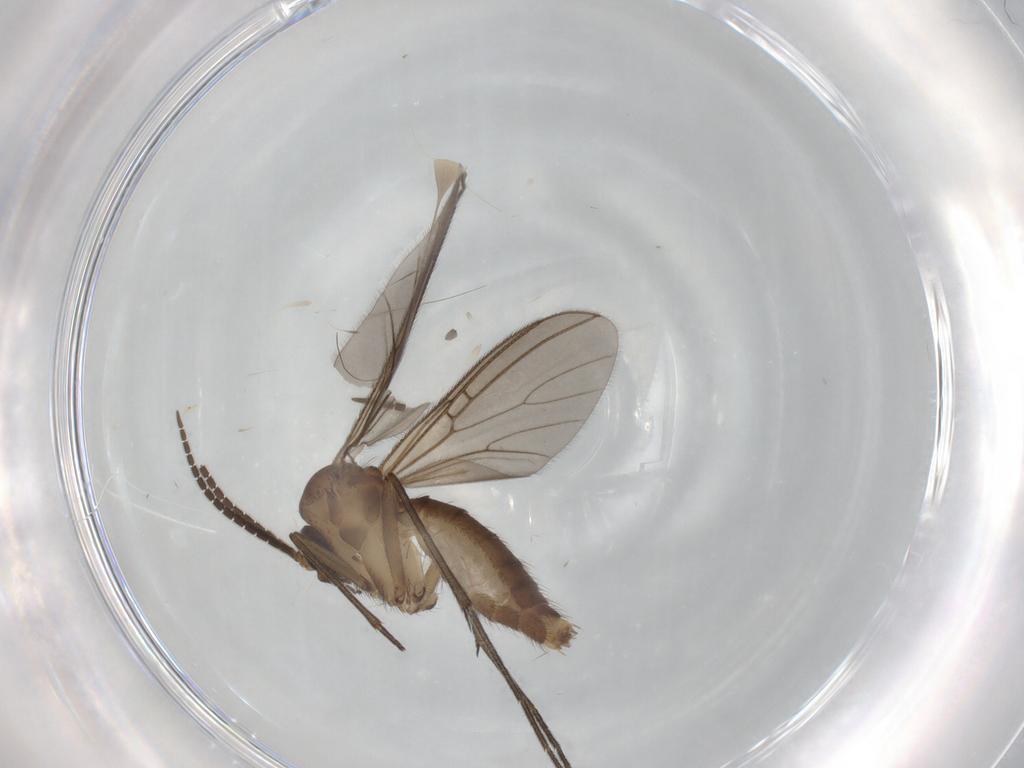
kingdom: Animalia
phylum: Arthropoda
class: Insecta
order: Diptera
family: Mycetophilidae
